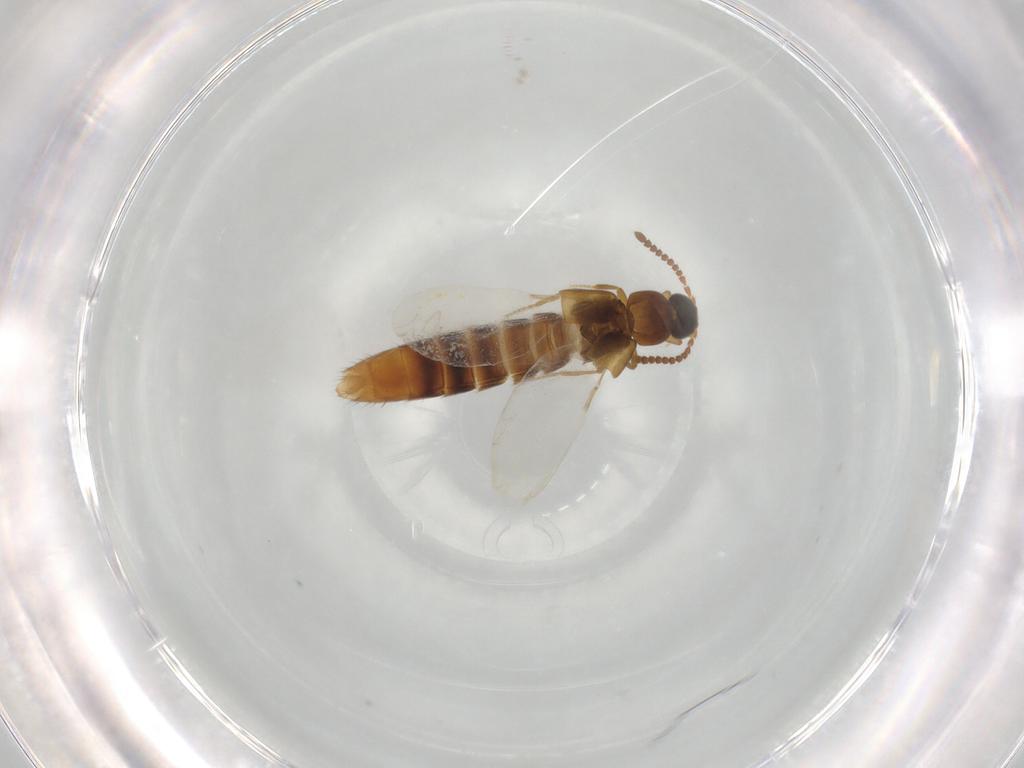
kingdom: Animalia
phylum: Arthropoda
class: Insecta
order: Coleoptera
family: Staphylinidae
